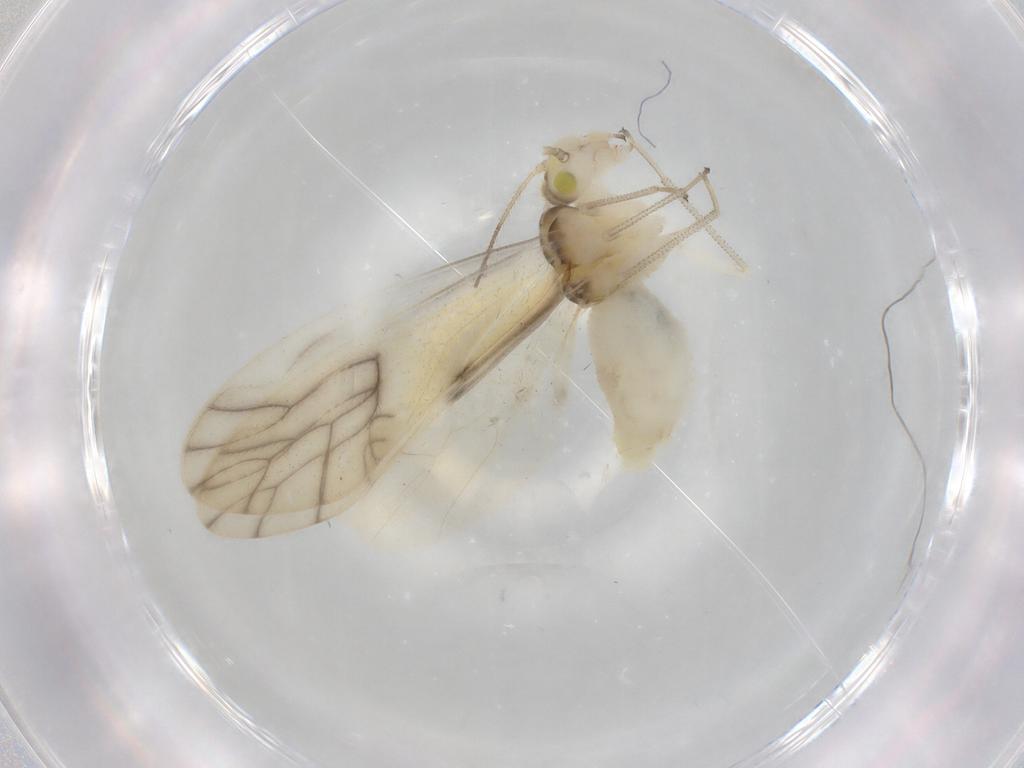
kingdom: Animalia
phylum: Arthropoda
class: Insecta
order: Psocodea
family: Caeciliusidae
